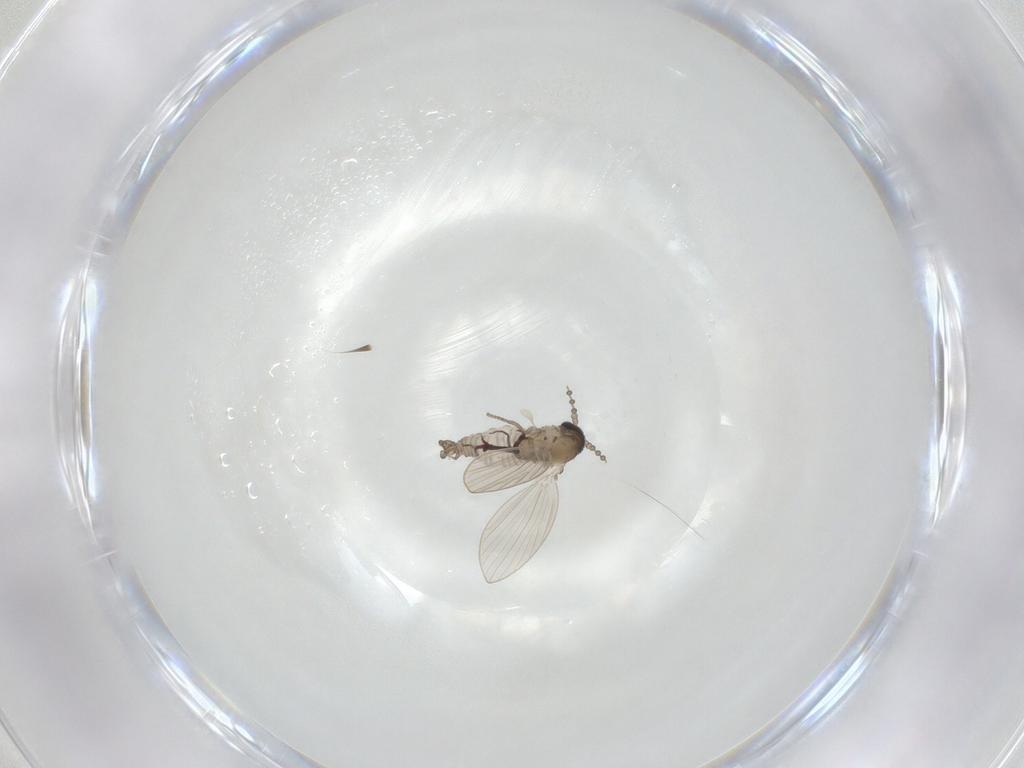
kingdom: Animalia
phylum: Arthropoda
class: Insecta
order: Diptera
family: Psychodidae
